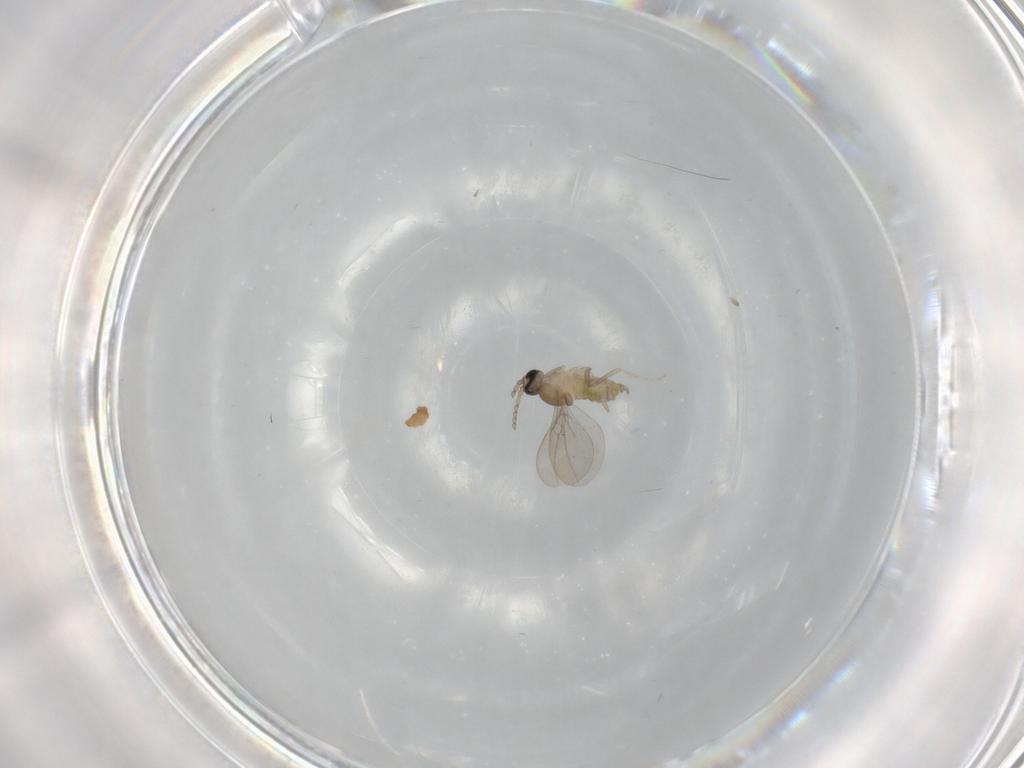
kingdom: Animalia
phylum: Arthropoda
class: Insecta
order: Diptera
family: Cecidomyiidae
